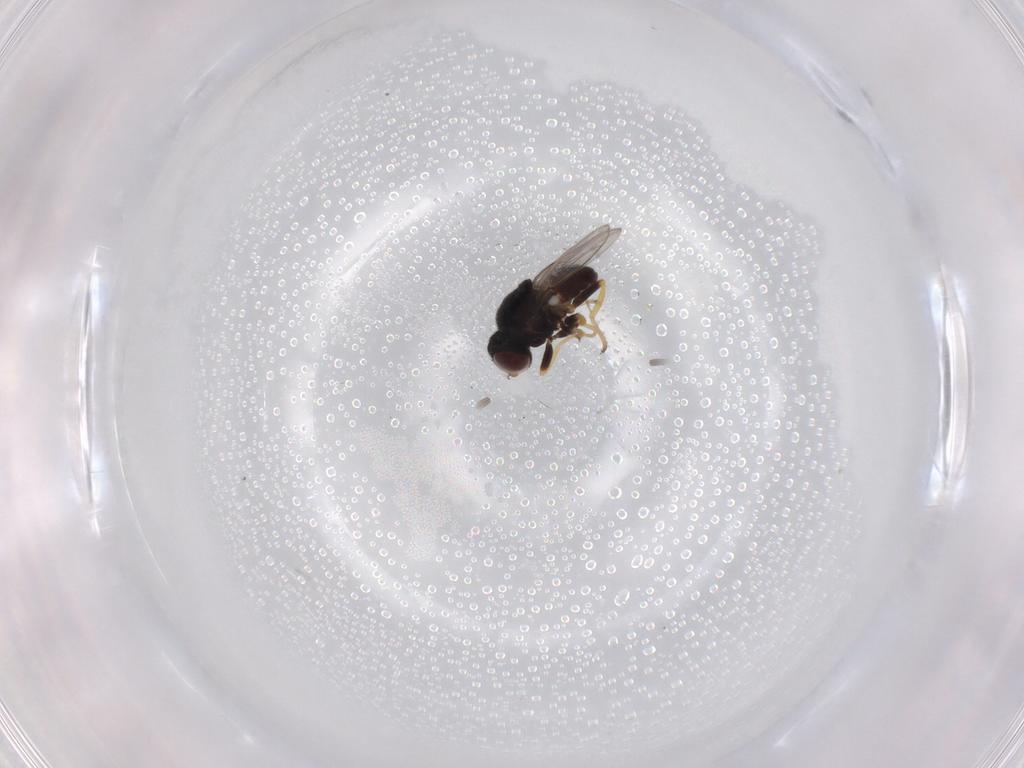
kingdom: Animalia
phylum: Arthropoda
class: Insecta
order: Diptera
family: Chloropidae
